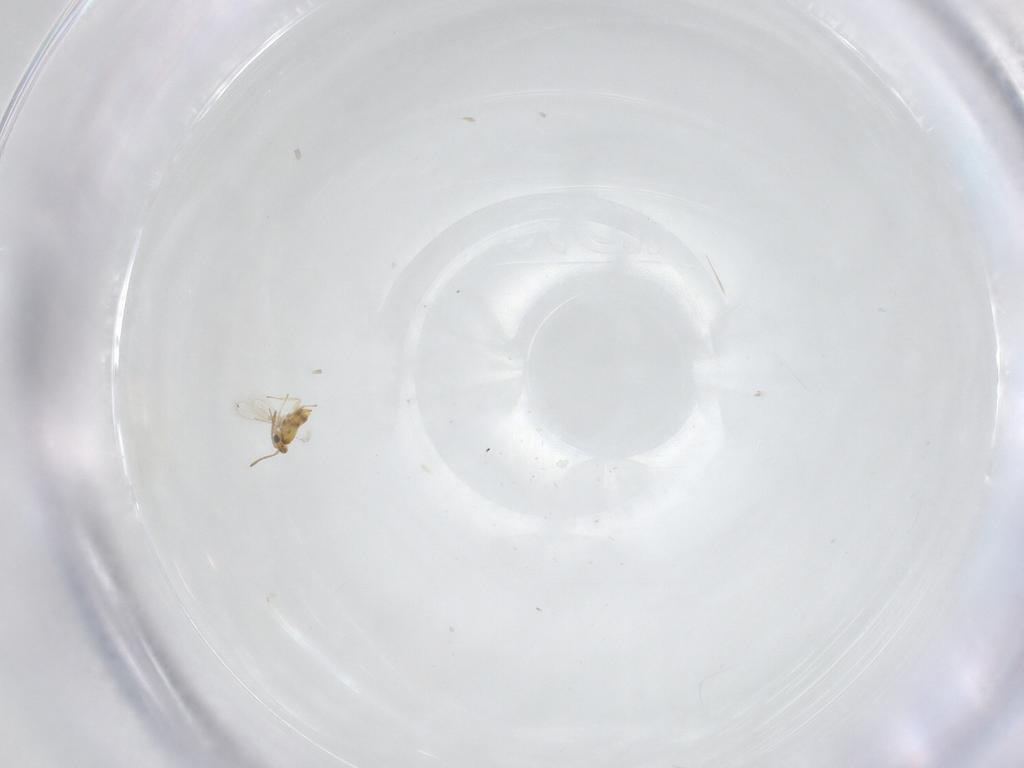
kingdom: Animalia
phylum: Arthropoda
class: Insecta
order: Hymenoptera
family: Aphelinidae
